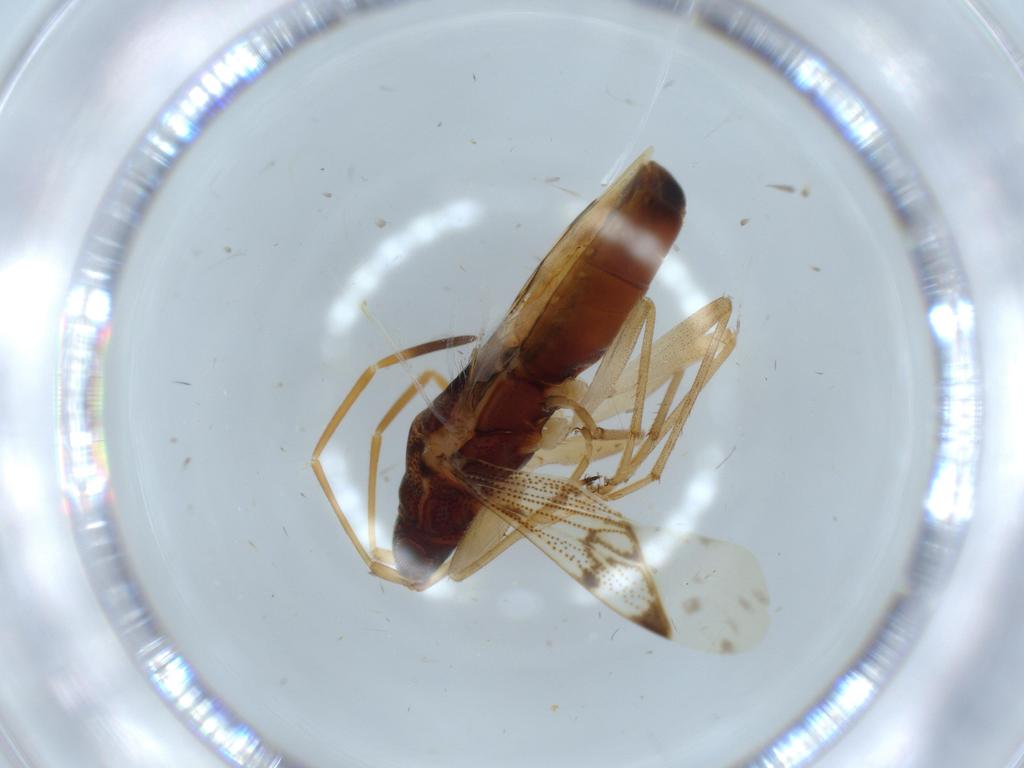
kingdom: Animalia
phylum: Arthropoda
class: Insecta
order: Hemiptera
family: Rhyparochromidae
